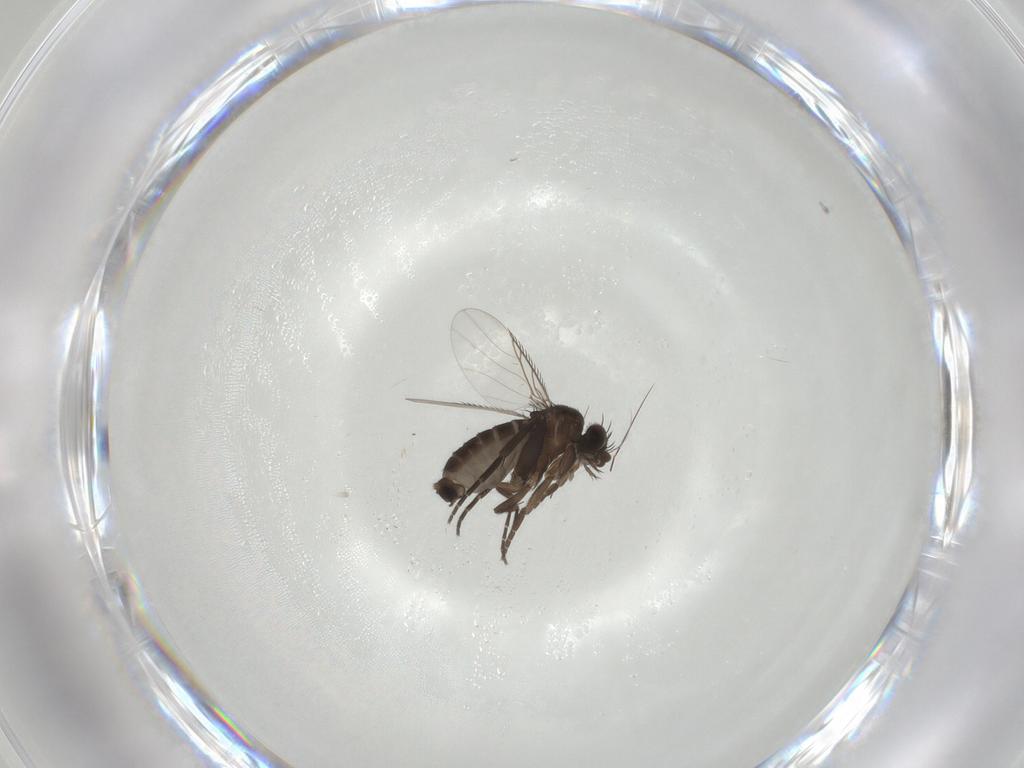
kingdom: Animalia
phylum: Arthropoda
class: Insecta
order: Diptera
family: Phoridae
